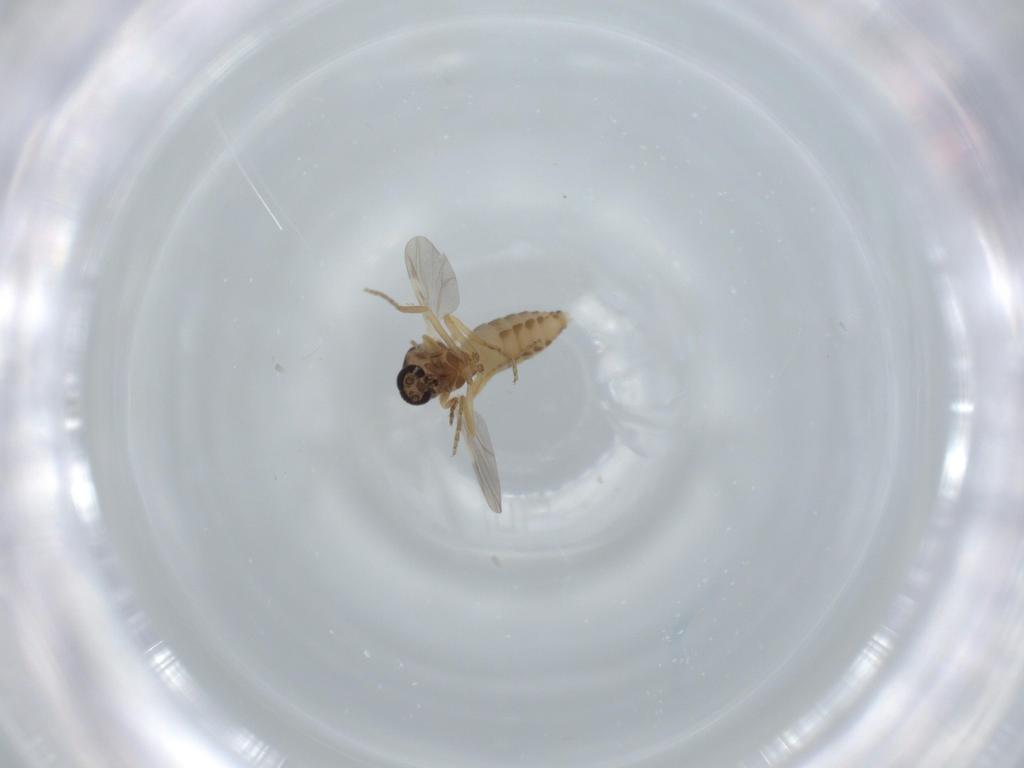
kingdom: Animalia
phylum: Arthropoda
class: Insecta
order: Diptera
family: Ceratopogonidae
